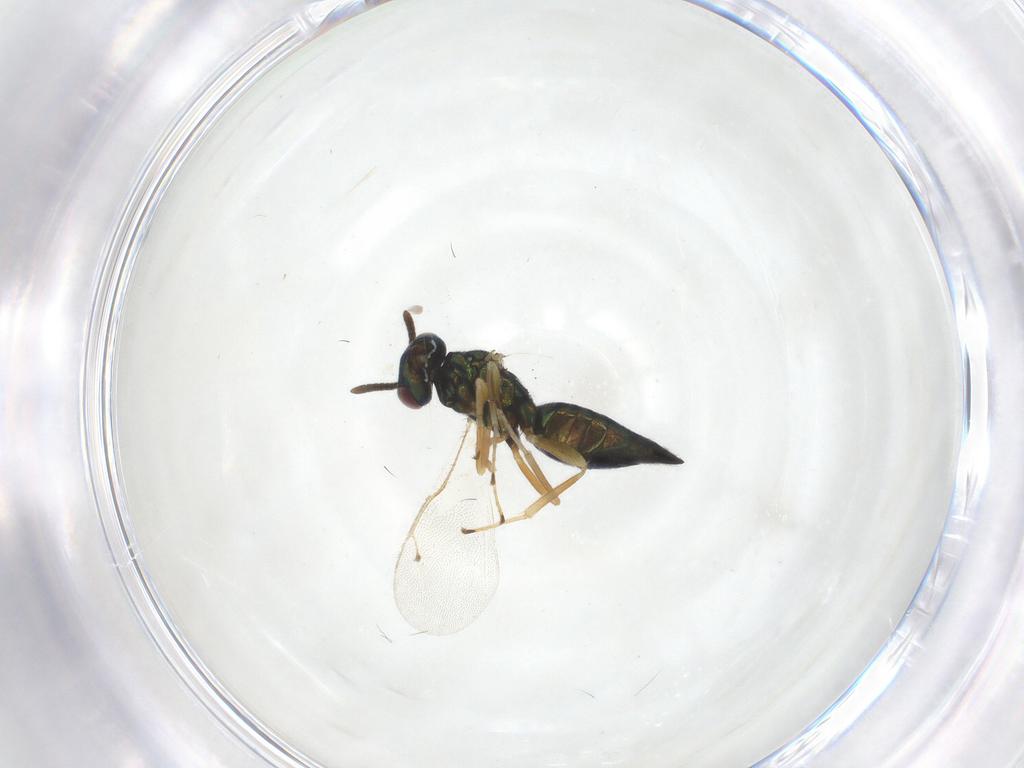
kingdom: Animalia
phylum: Arthropoda
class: Insecta
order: Hymenoptera
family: Pteromalidae
